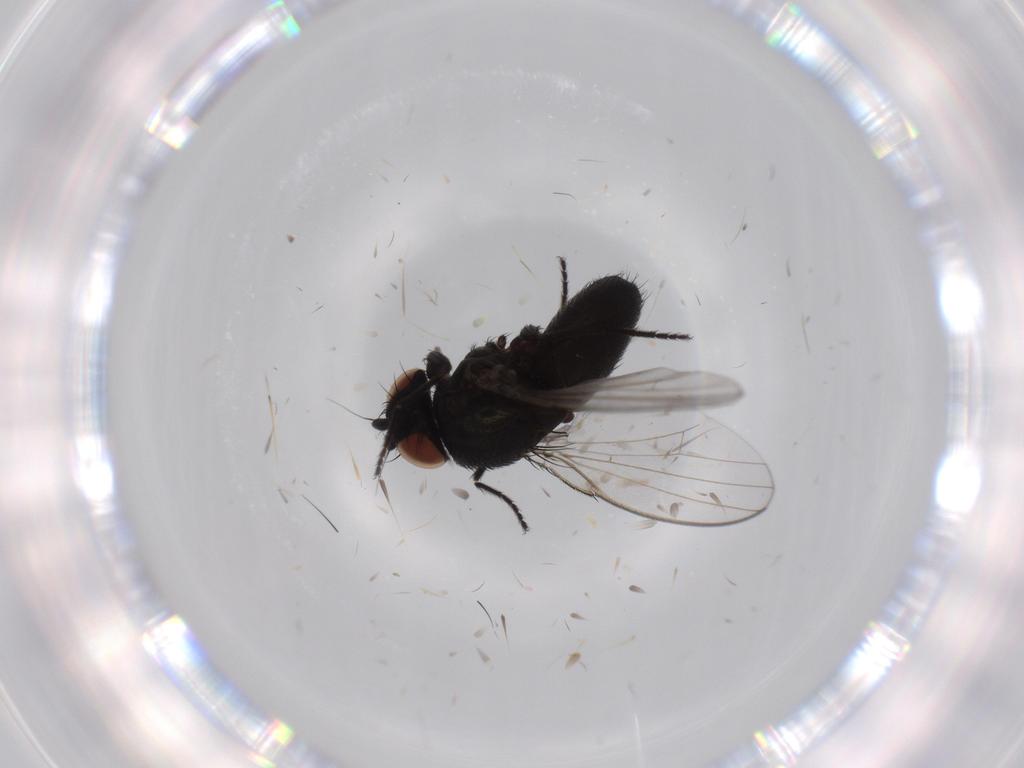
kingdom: Animalia
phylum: Arthropoda
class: Insecta
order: Diptera
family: Milichiidae
